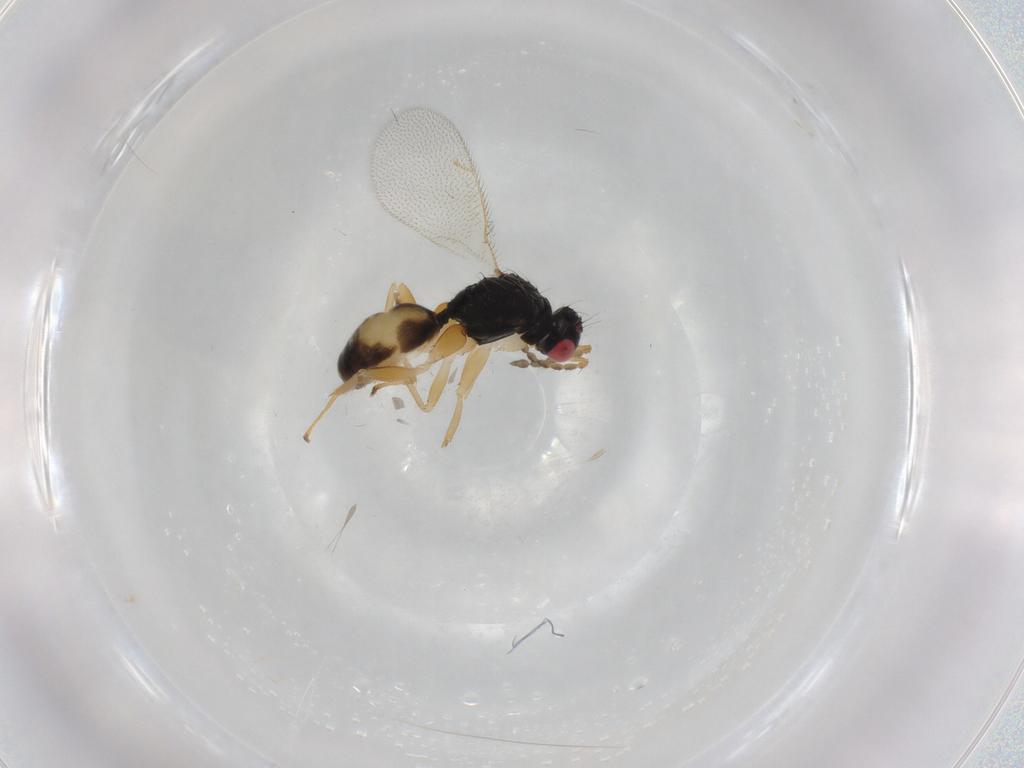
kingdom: Animalia
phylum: Arthropoda
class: Insecta
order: Hymenoptera
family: Eulophidae
